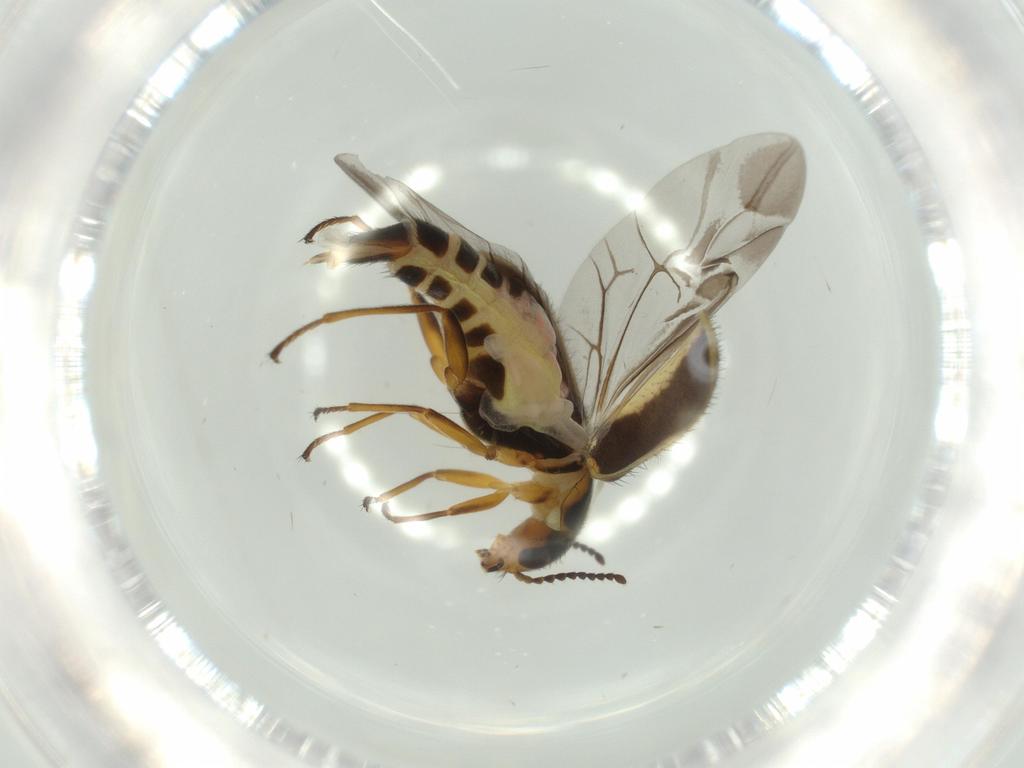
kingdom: Animalia
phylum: Arthropoda
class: Insecta
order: Coleoptera
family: Melyridae
